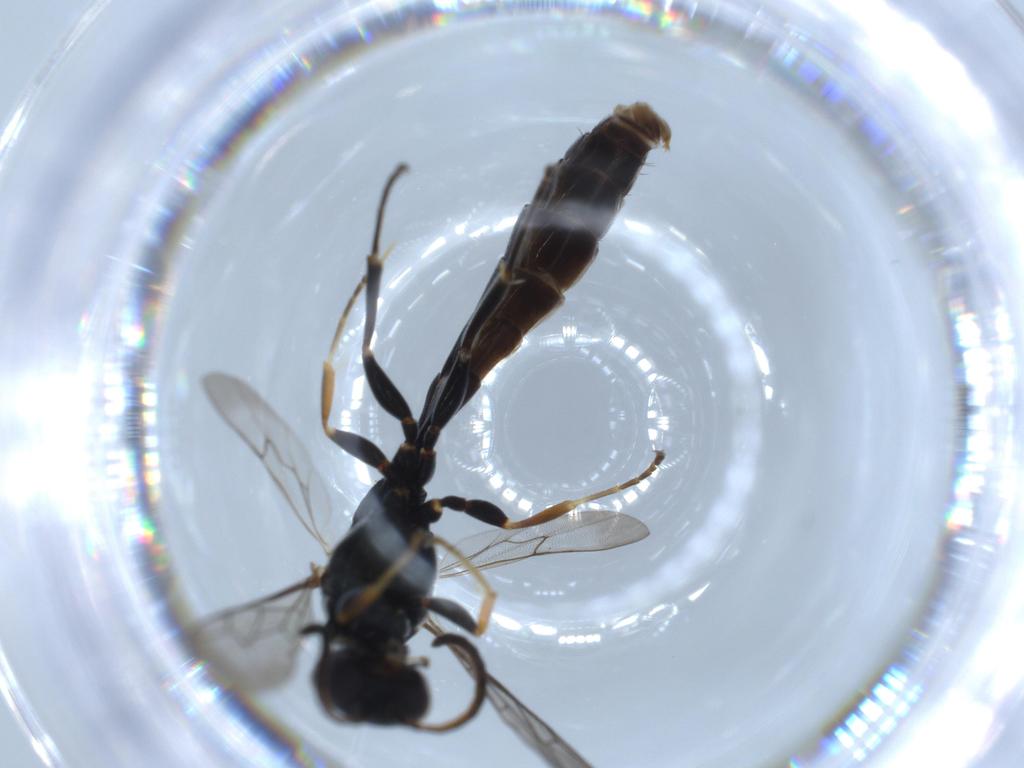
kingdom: Animalia
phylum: Arthropoda
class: Insecta
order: Hymenoptera
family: Crabronidae
